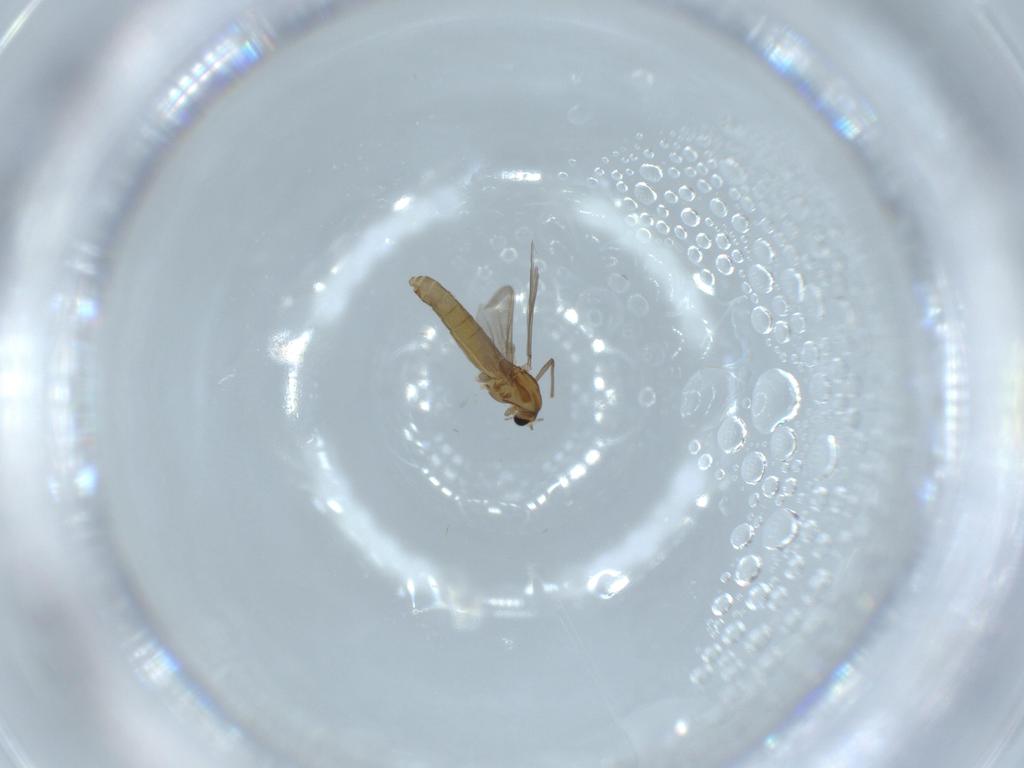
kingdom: Animalia
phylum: Arthropoda
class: Insecta
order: Diptera
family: Chironomidae
